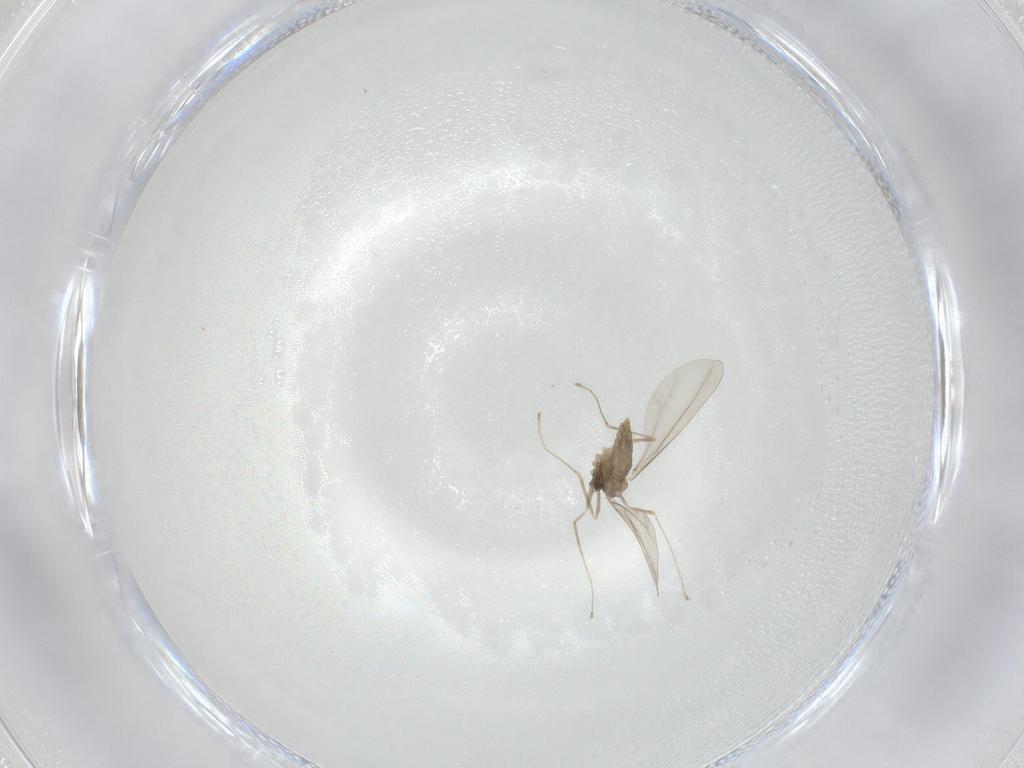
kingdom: Animalia
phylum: Arthropoda
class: Insecta
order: Diptera
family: Cecidomyiidae
